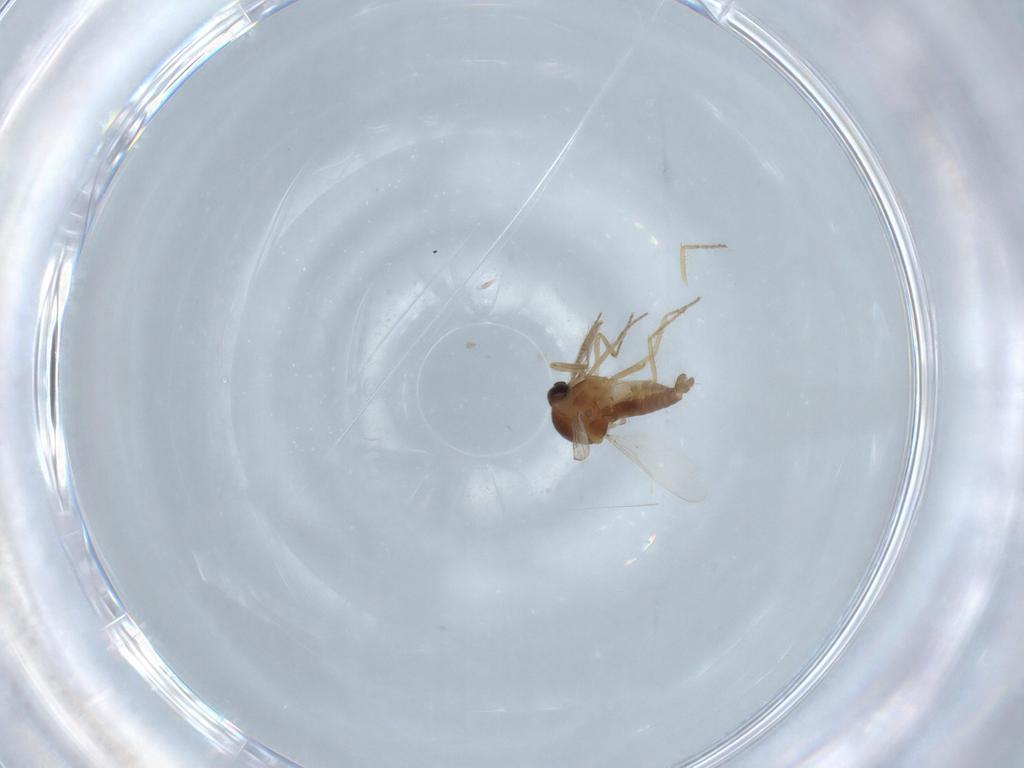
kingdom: Animalia
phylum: Arthropoda
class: Insecta
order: Diptera
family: Ceratopogonidae
